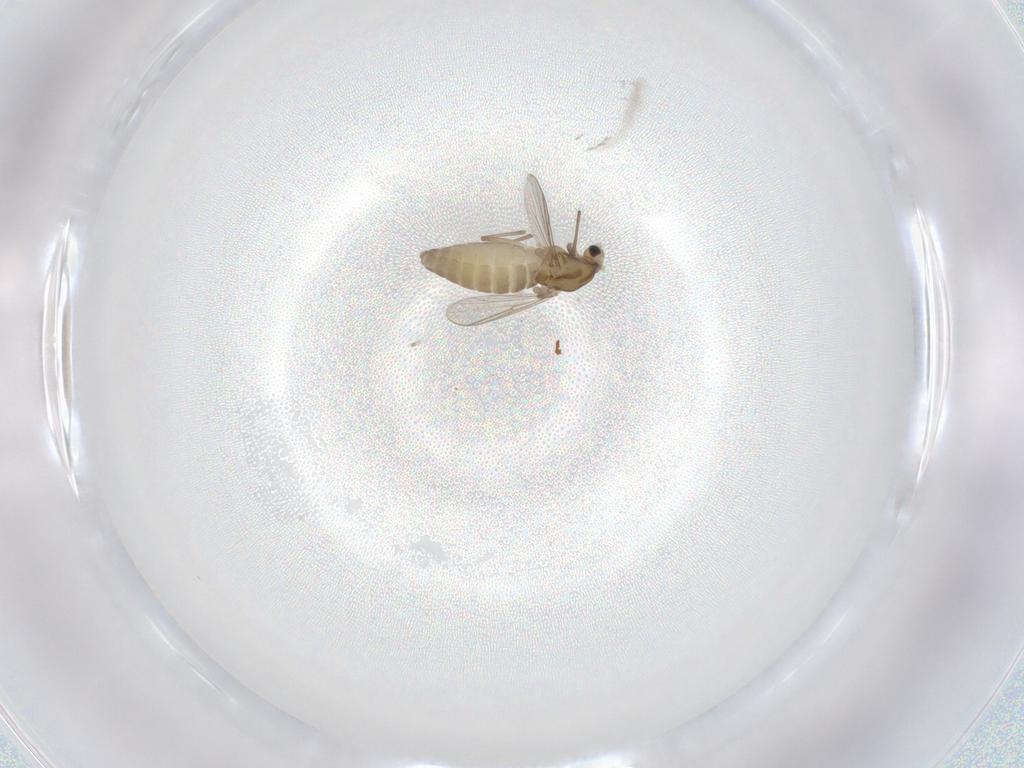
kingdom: Animalia
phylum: Arthropoda
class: Insecta
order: Diptera
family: Chironomidae
